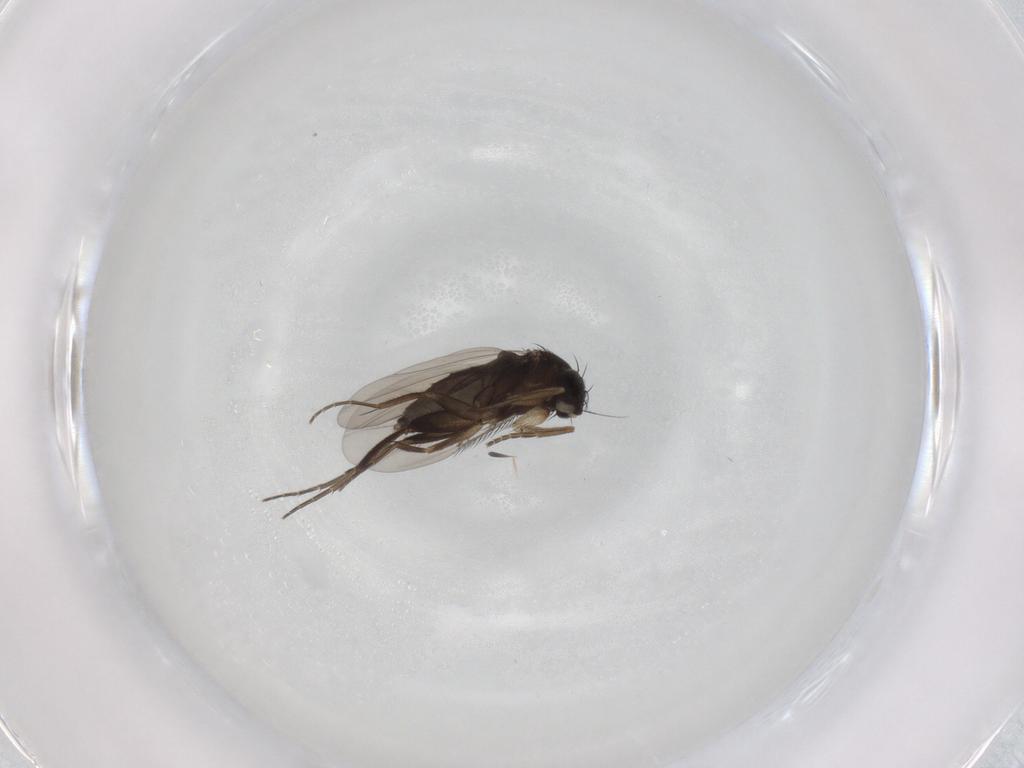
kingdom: Animalia
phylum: Arthropoda
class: Insecta
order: Diptera
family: Phoridae
